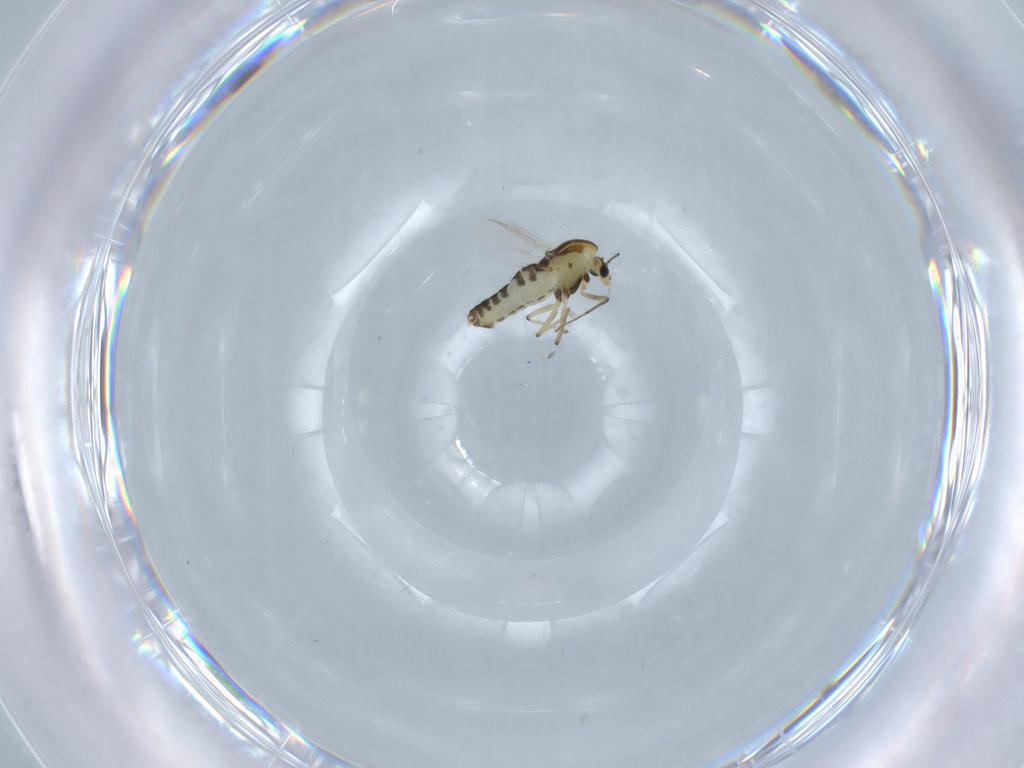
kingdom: Animalia
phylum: Arthropoda
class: Insecta
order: Diptera
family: Chironomidae
